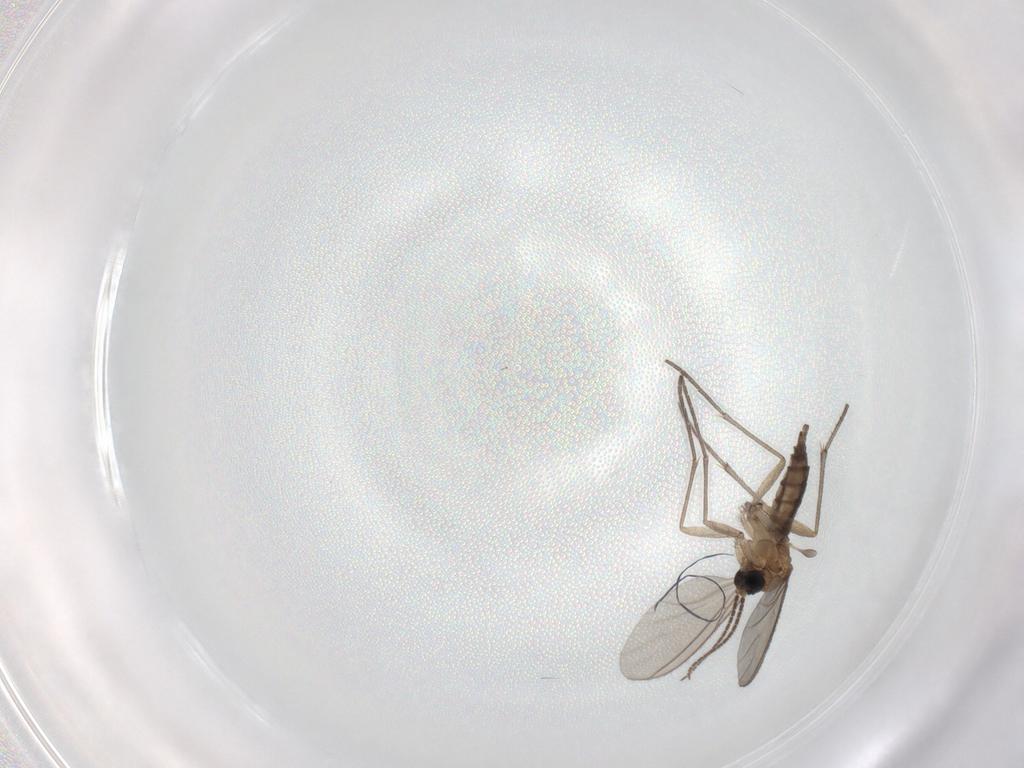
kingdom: Animalia
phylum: Arthropoda
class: Insecta
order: Diptera
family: Sciaridae
